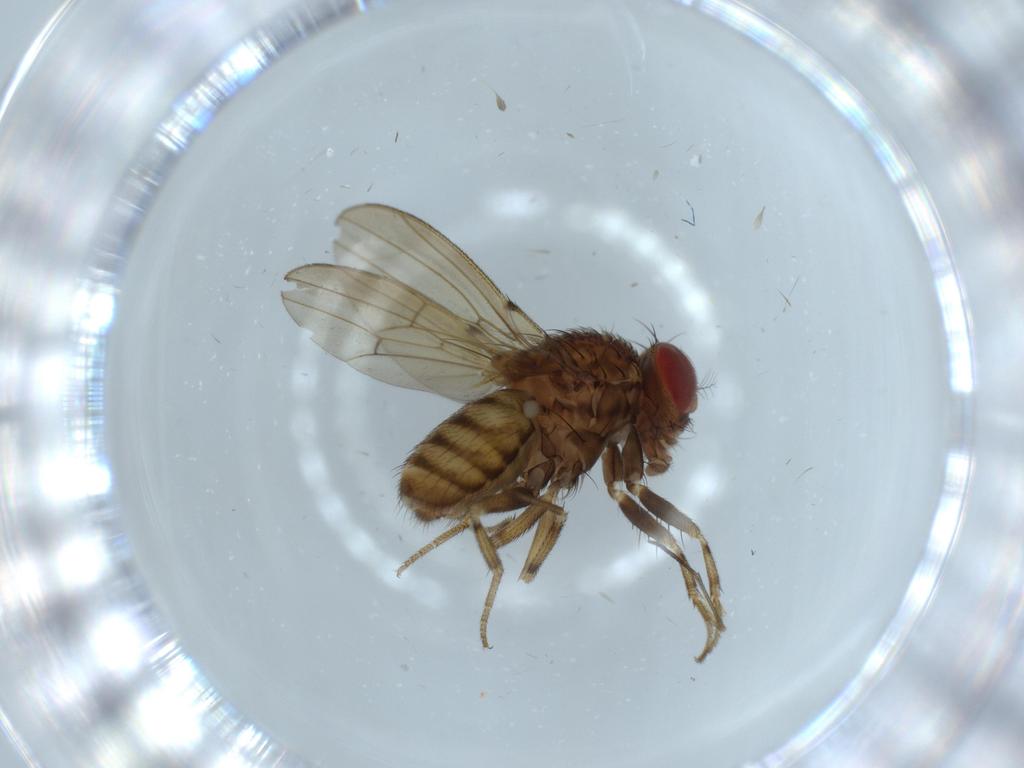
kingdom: Animalia
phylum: Arthropoda
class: Insecta
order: Diptera
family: Drosophilidae
